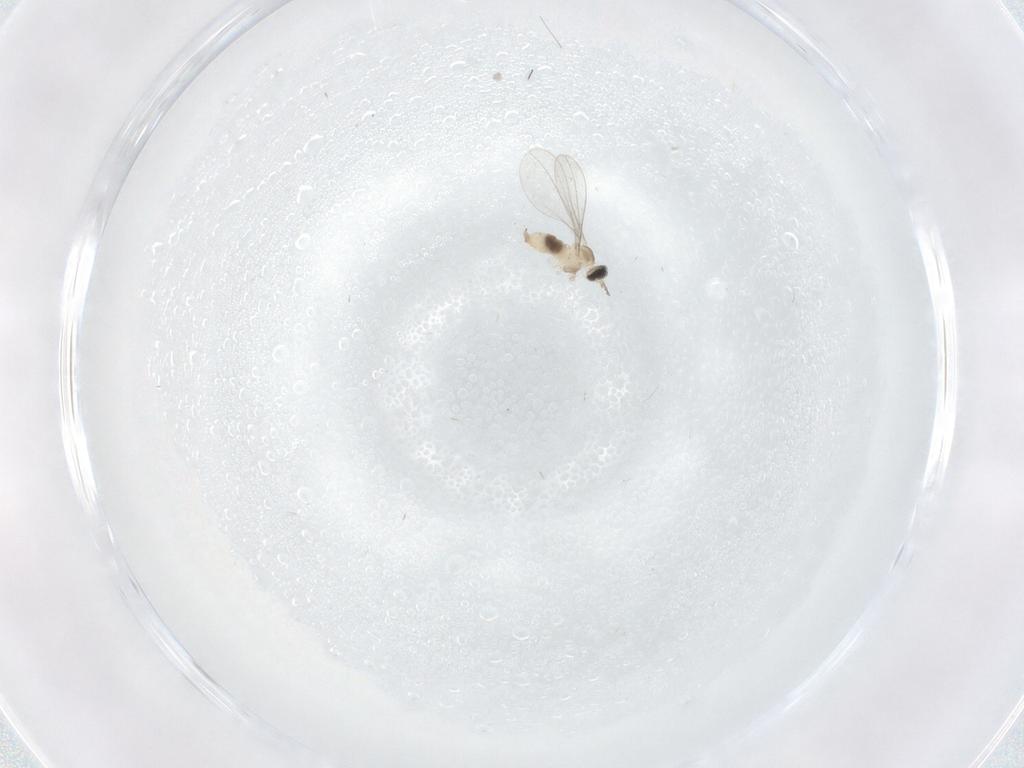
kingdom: Animalia
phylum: Arthropoda
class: Insecta
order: Diptera
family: Cecidomyiidae
